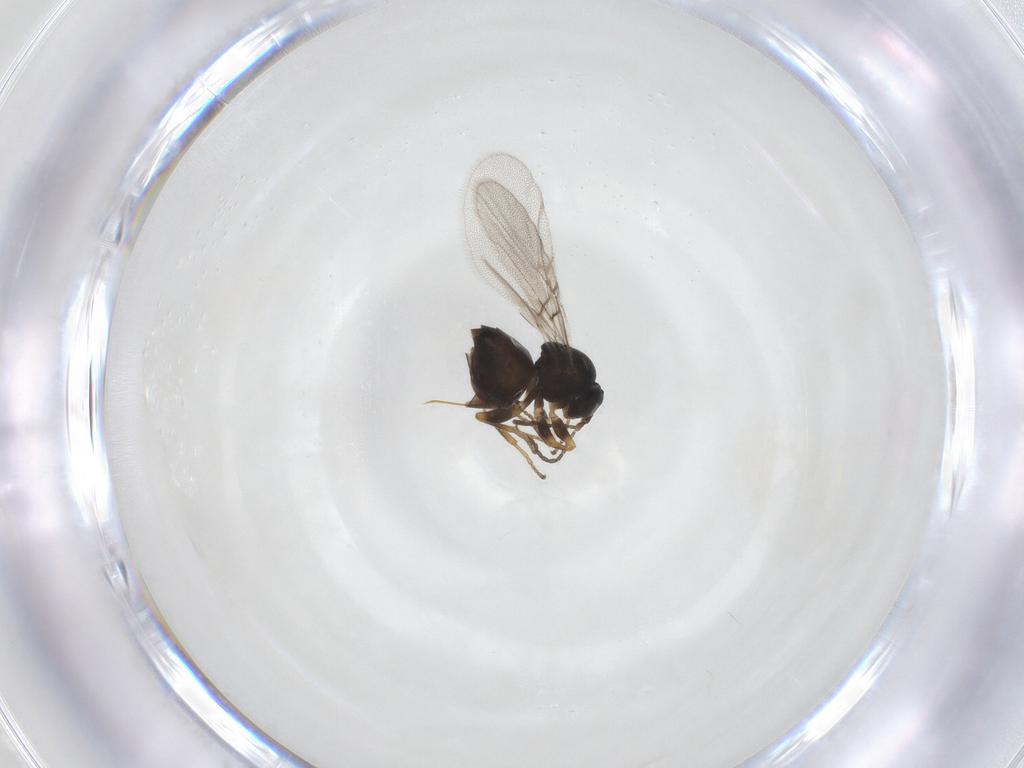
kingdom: Animalia
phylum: Arthropoda
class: Insecta
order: Hymenoptera
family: Cynipidae
